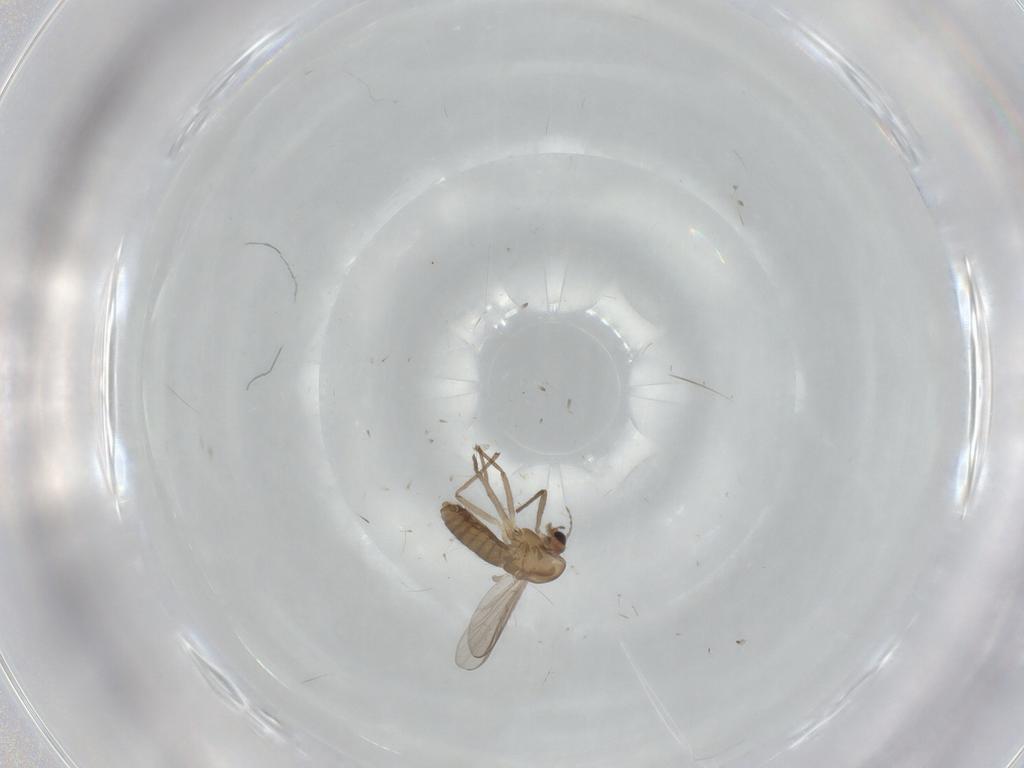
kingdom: Animalia
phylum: Arthropoda
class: Insecta
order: Diptera
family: Chironomidae
